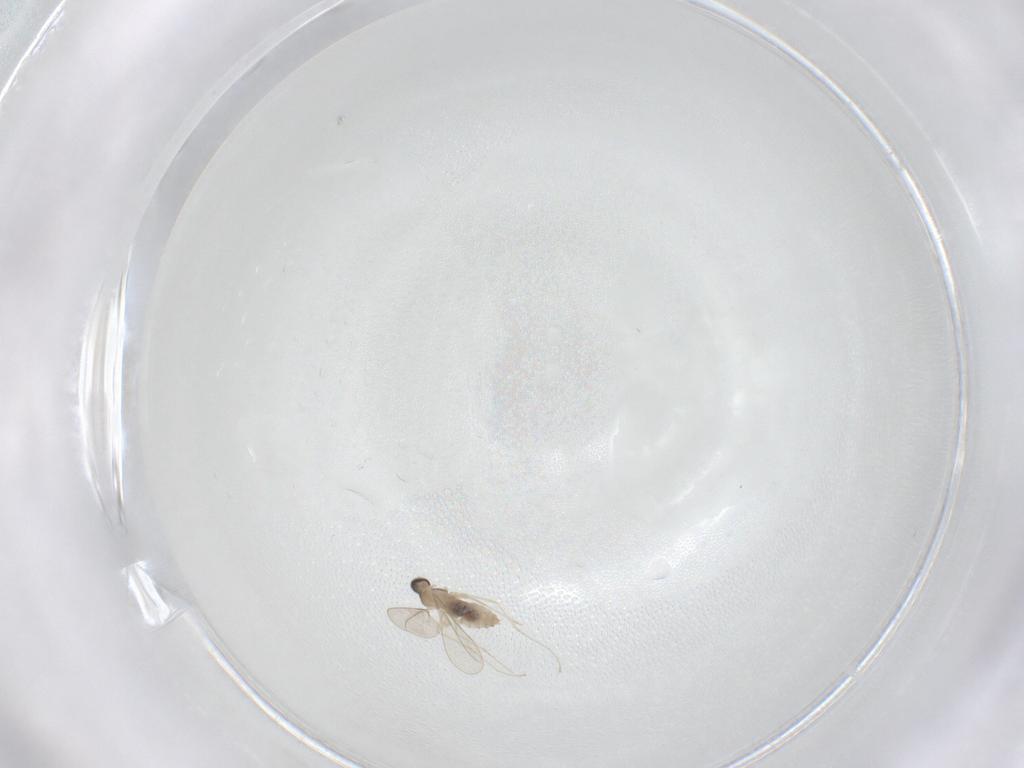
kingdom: Animalia
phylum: Arthropoda
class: Insecta
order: Diptera
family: Cecidomyiidae
